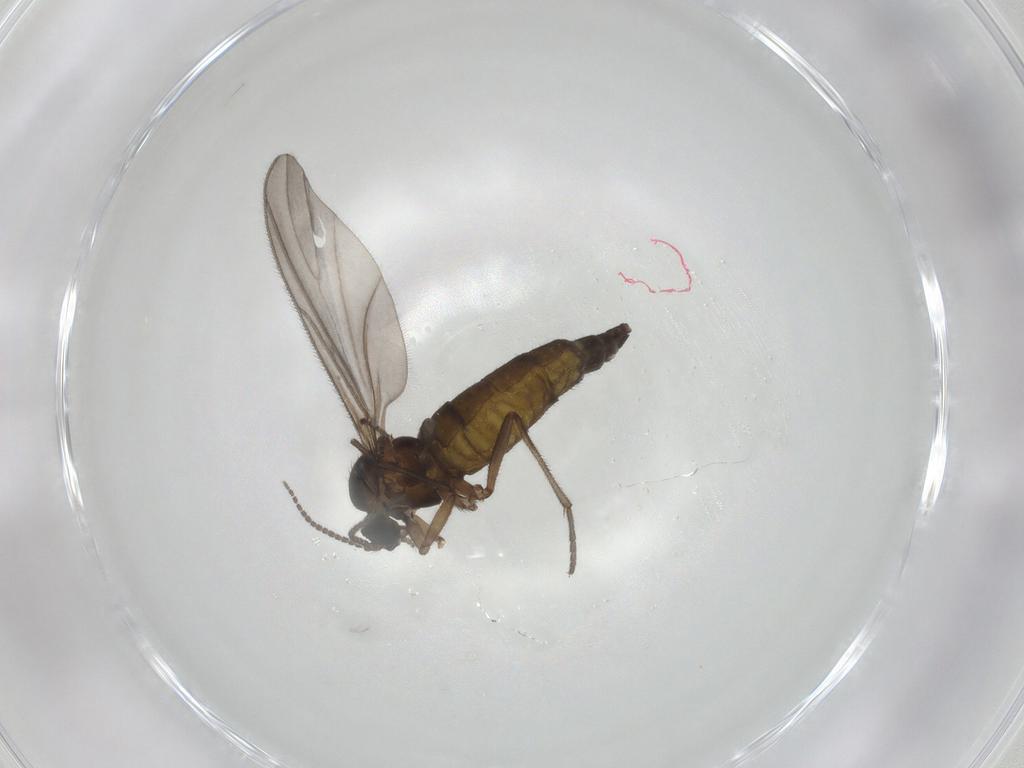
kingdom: Animalia
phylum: Arthropoda
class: Insecta
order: Diptera
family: Sciaridae
